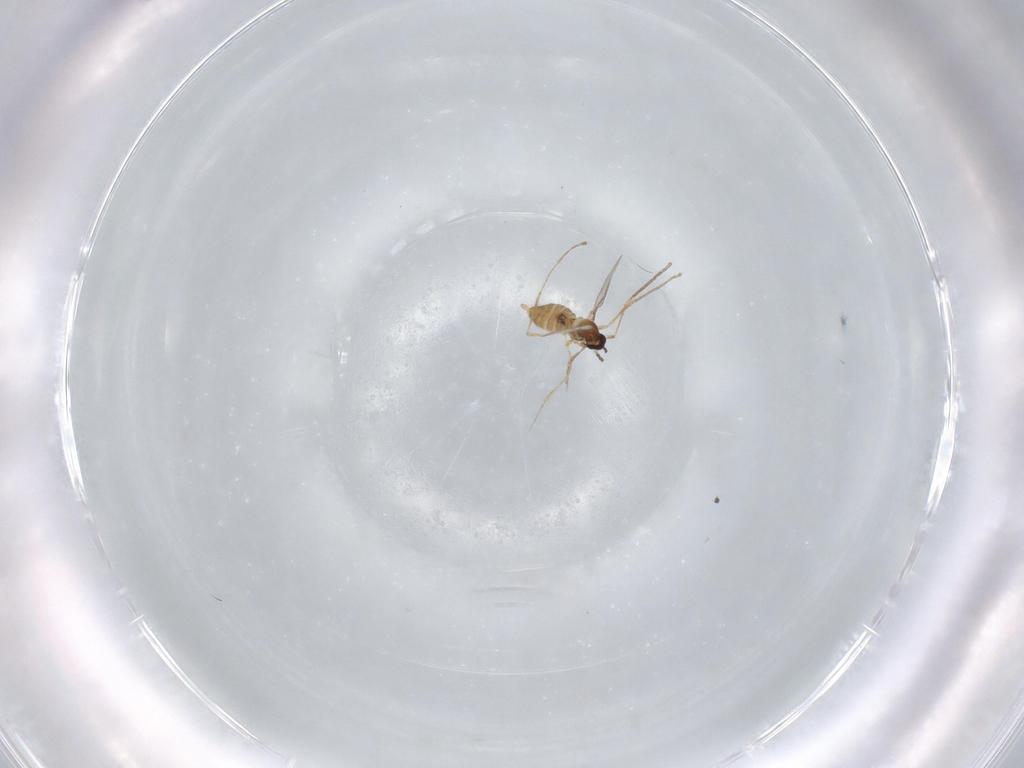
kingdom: Animalia
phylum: Arthropoda
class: Insecta
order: Diptera
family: Cecidomyiidae
